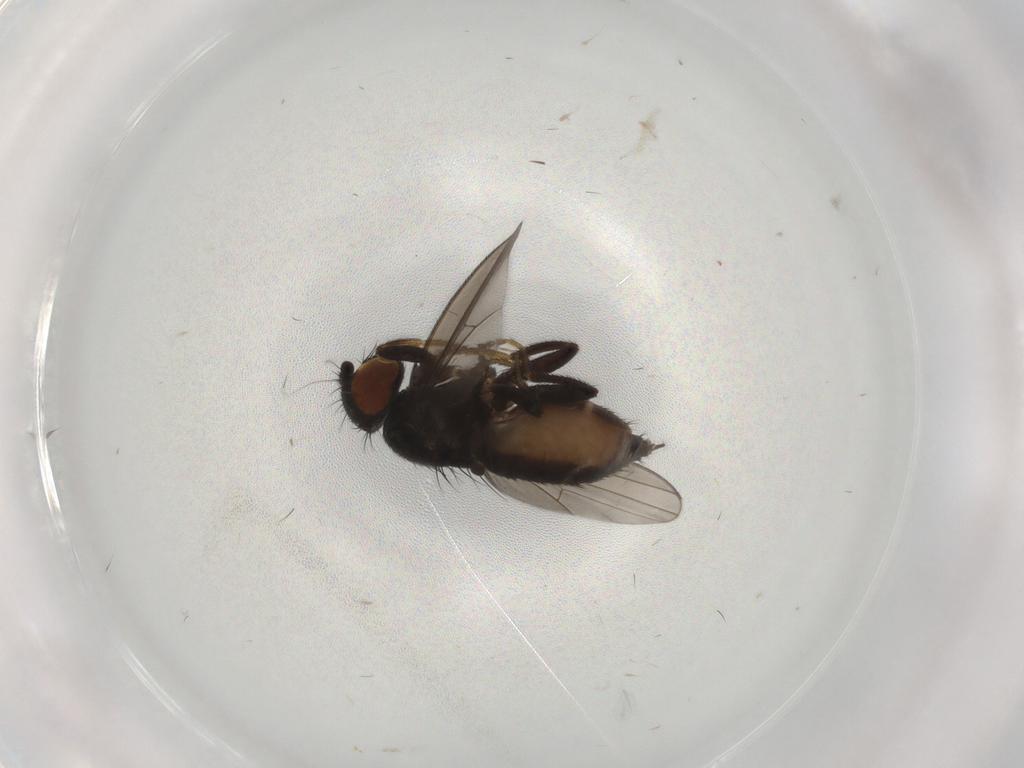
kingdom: Animalia
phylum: Arthropoda
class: Insecta
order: Diptera
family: Milichiidae
